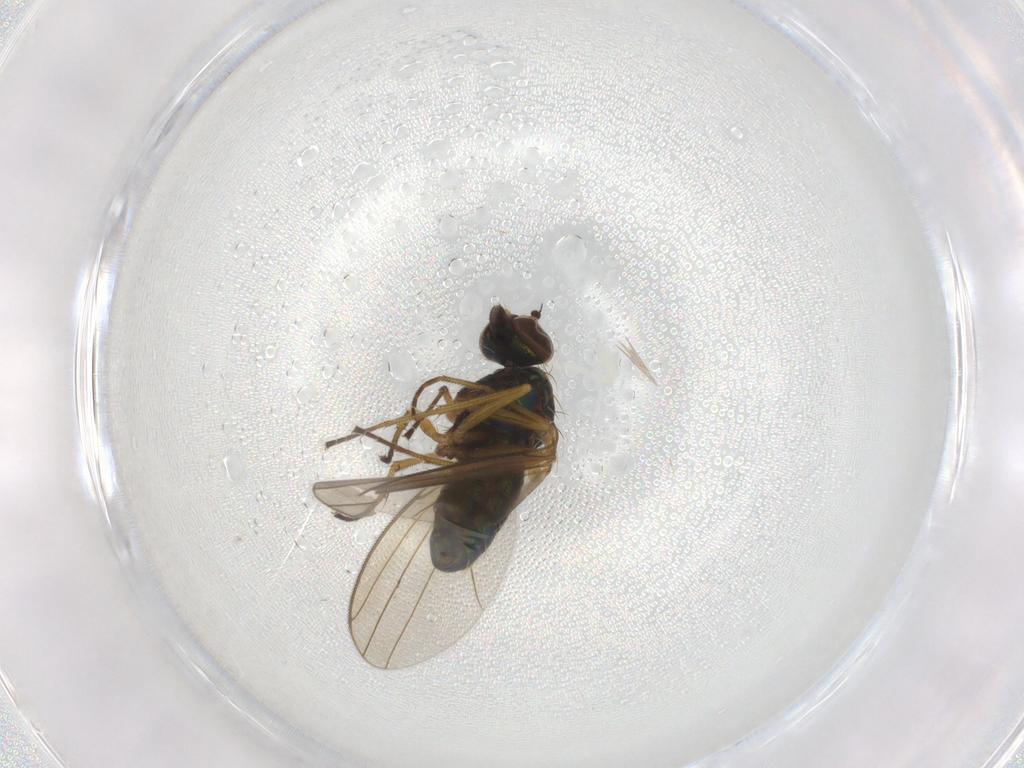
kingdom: Animalia
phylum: Arthropoda
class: Insecta
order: Diptera
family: Dolichopodidae
